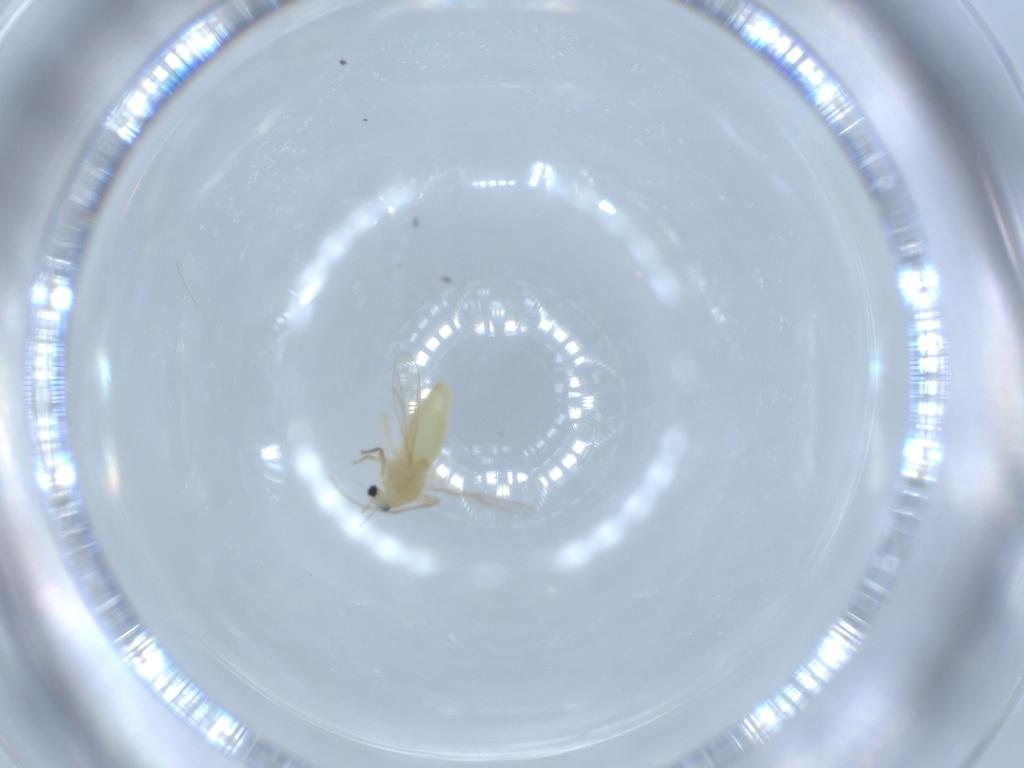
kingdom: Animalia
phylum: Arthropoda
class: Insecta
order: Diptera
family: Chironomidae
